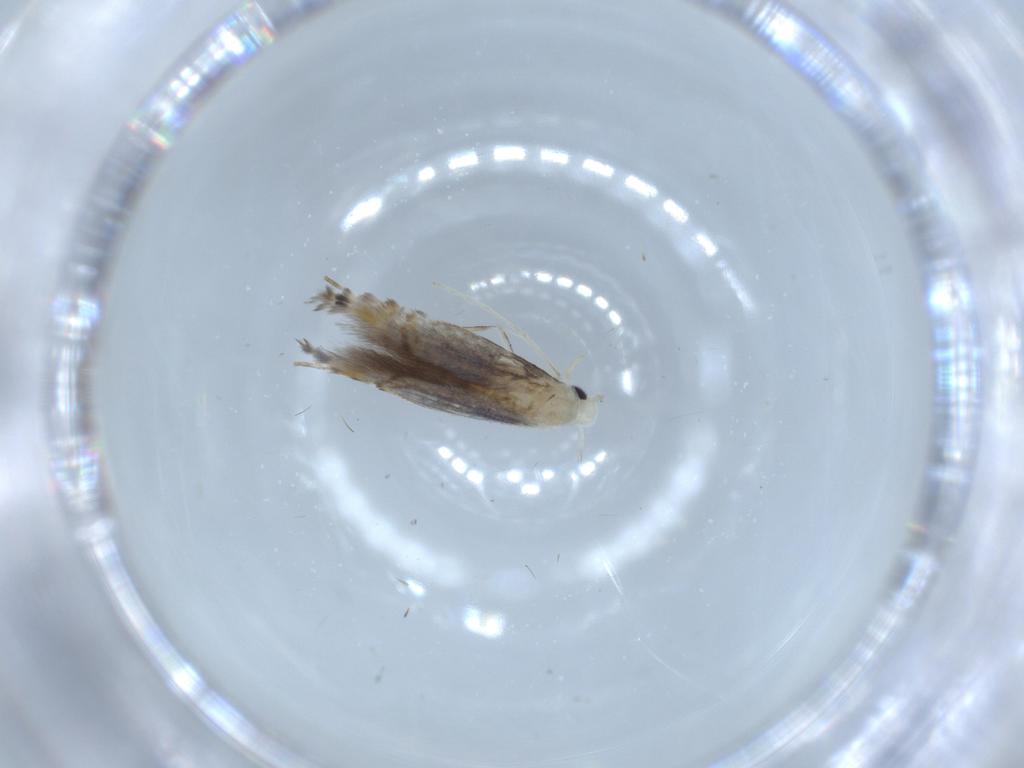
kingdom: Animalia
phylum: Arthropoda
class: Insecta
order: Lepidoptera
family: Nepticulidae
